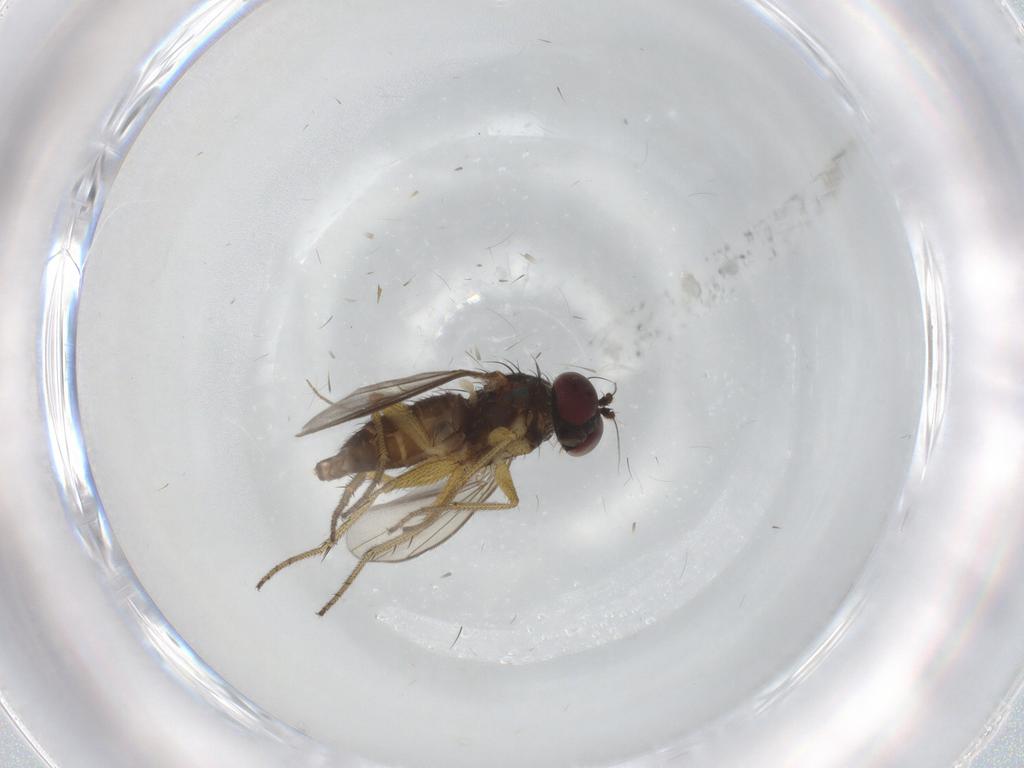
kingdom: Animalia
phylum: Arthropoda
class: Insecta
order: Diptera
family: Dolichopodidae
